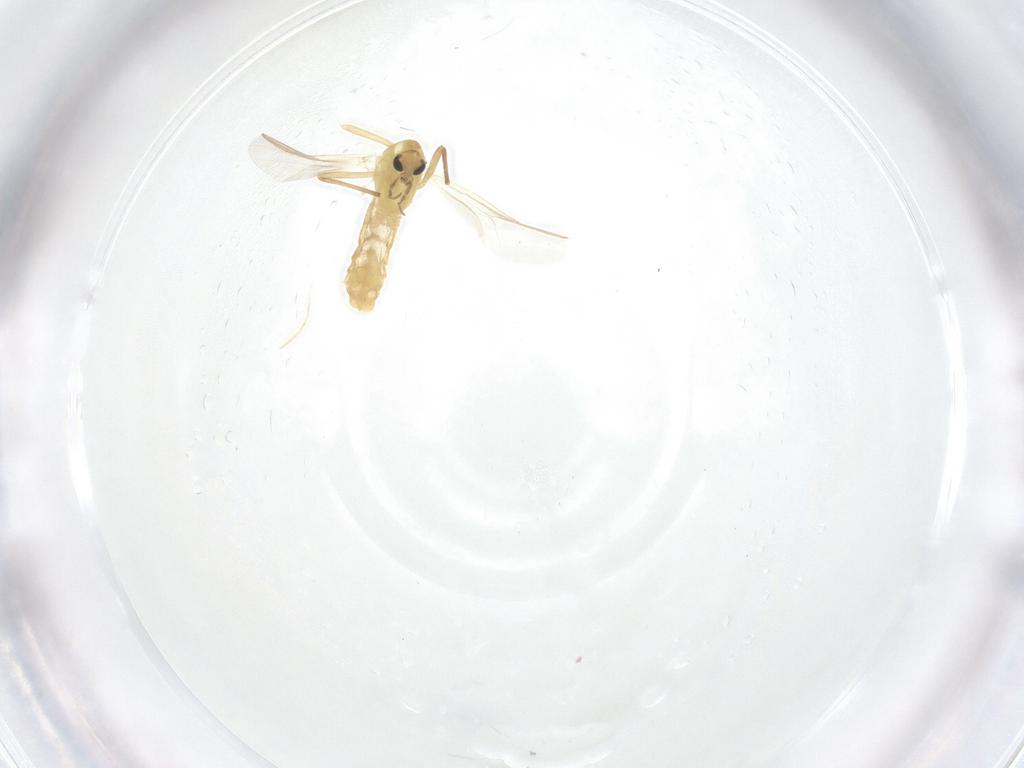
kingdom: Animalia
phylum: Arthropoda
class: Insecta
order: Diptera
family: Chironomidae
